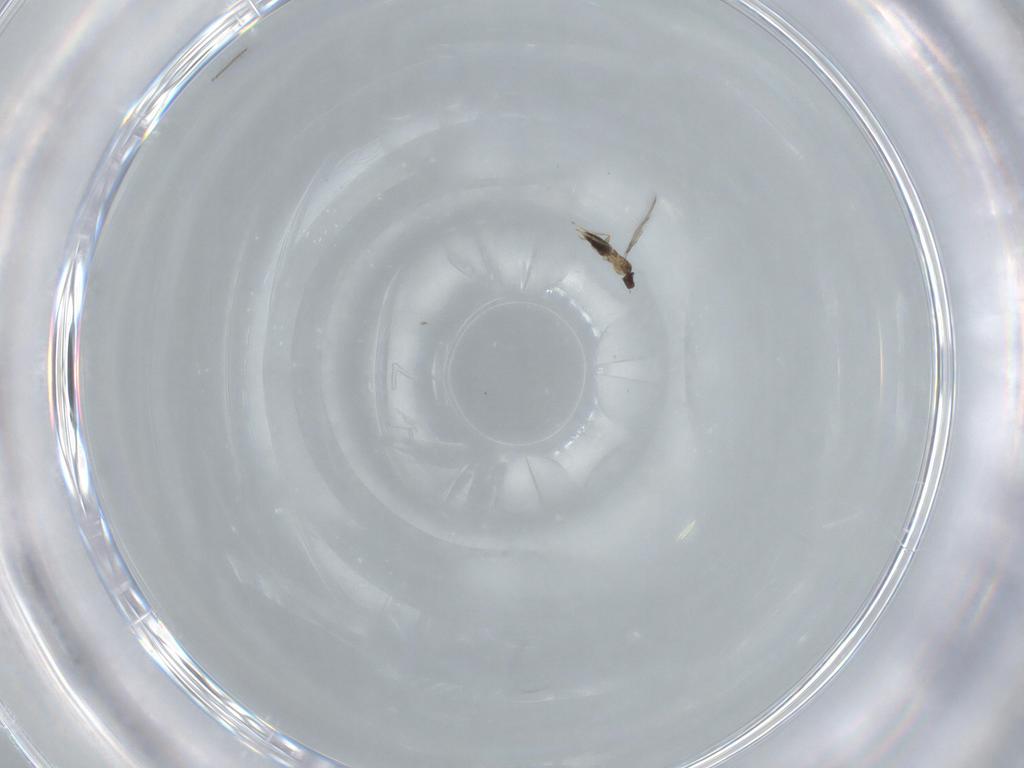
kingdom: Animalia
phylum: Arthropoda
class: Insecta
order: Hymenoptera
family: Mymaridae
